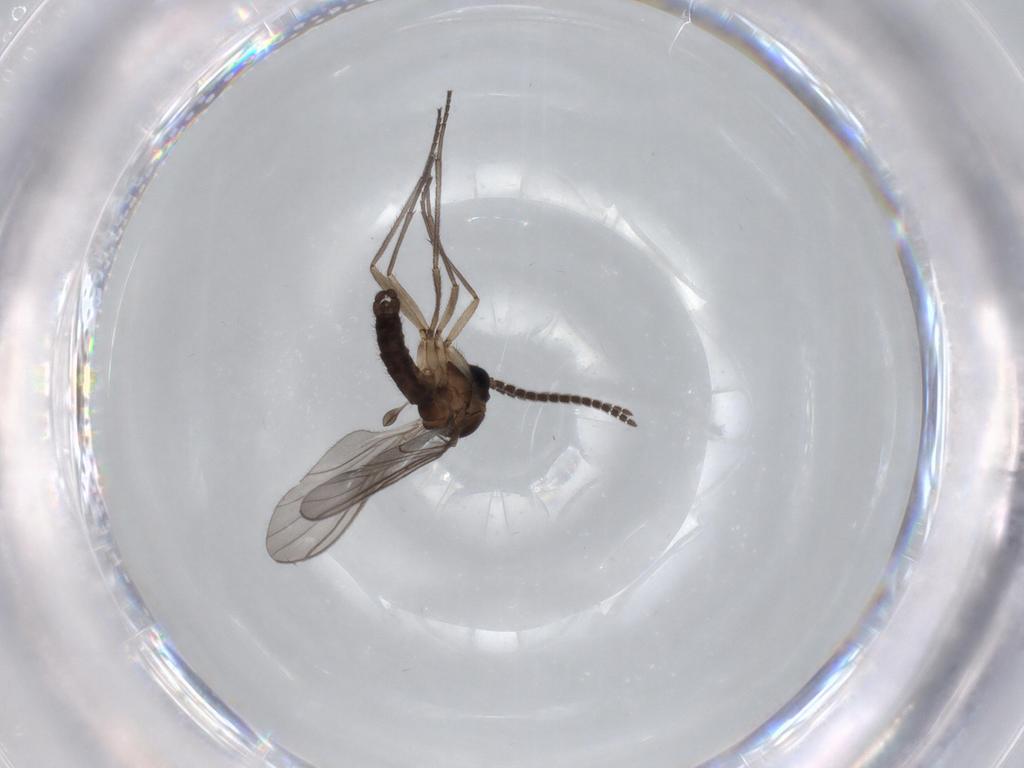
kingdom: Animalia
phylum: Arthropoda
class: Insecta
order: Diptera
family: Sciaridae
